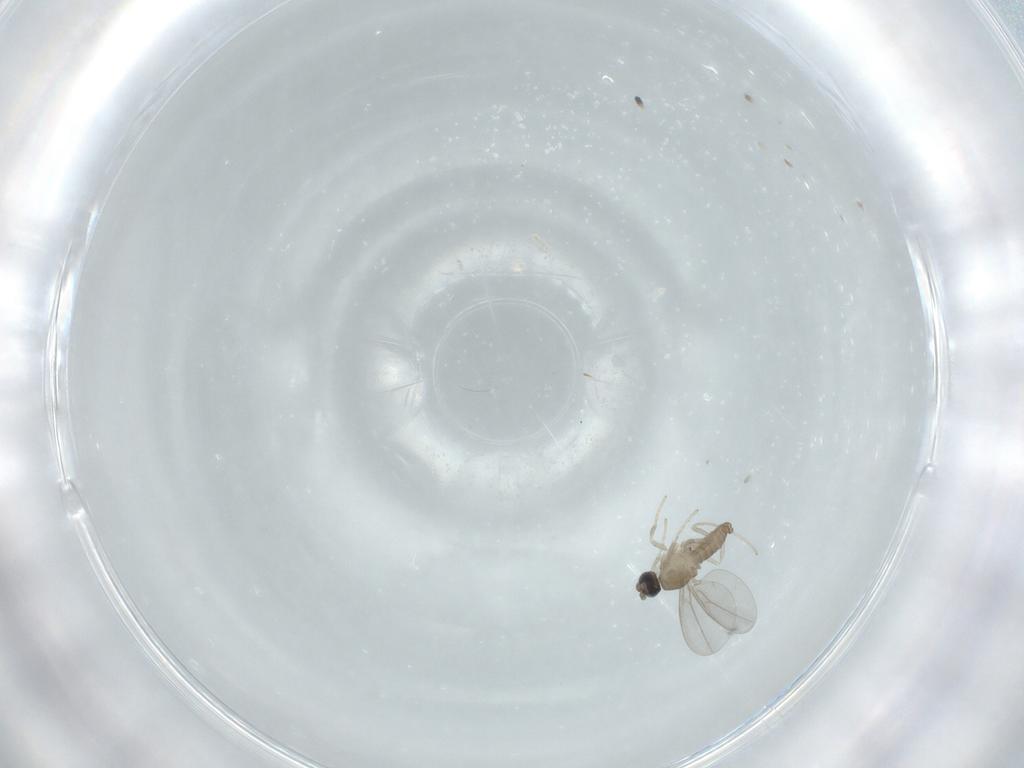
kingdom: Animalia
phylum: Arthropoda
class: Insecta
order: Diptera
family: Cecidomyiidae
